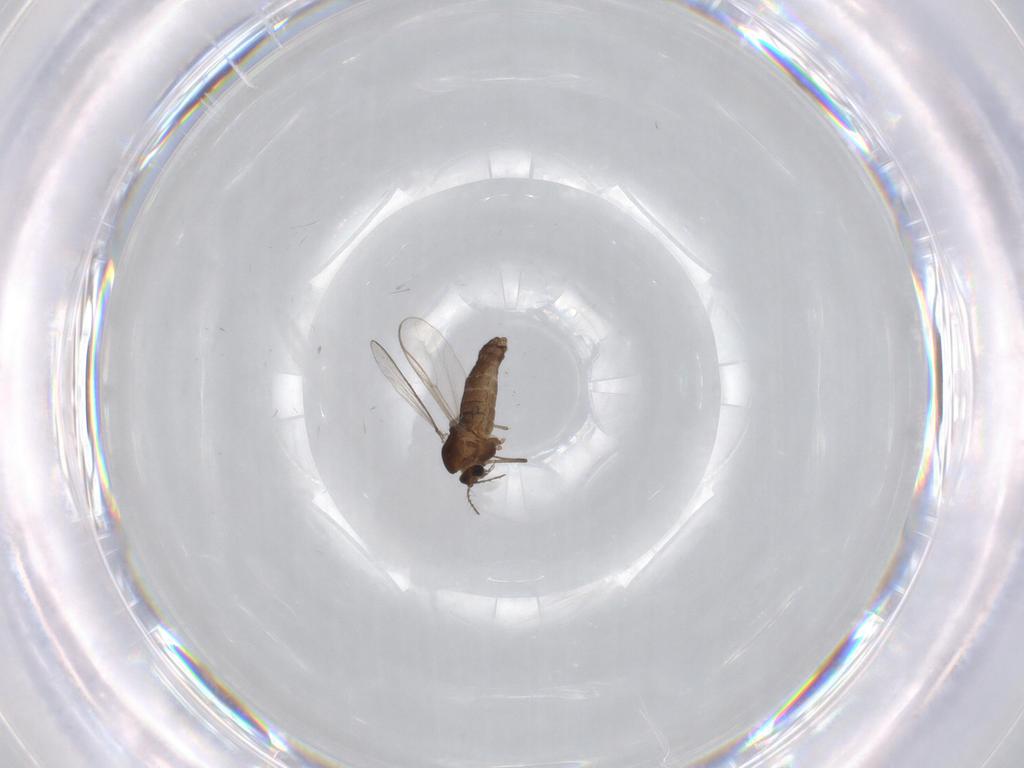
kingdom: Animalia
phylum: Arthropoda
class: Insecta
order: Diptera
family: Chironomidae
